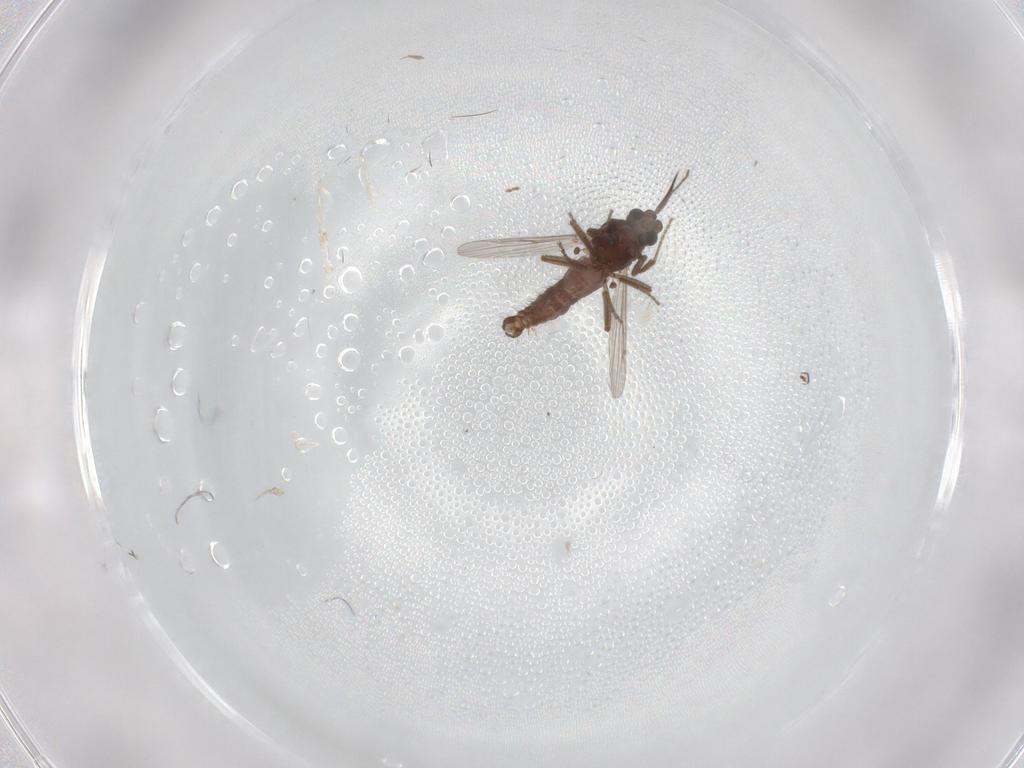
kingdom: Animalia
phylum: Arthropoda
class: Insecta
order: Diptera
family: Ceratopogonidae
